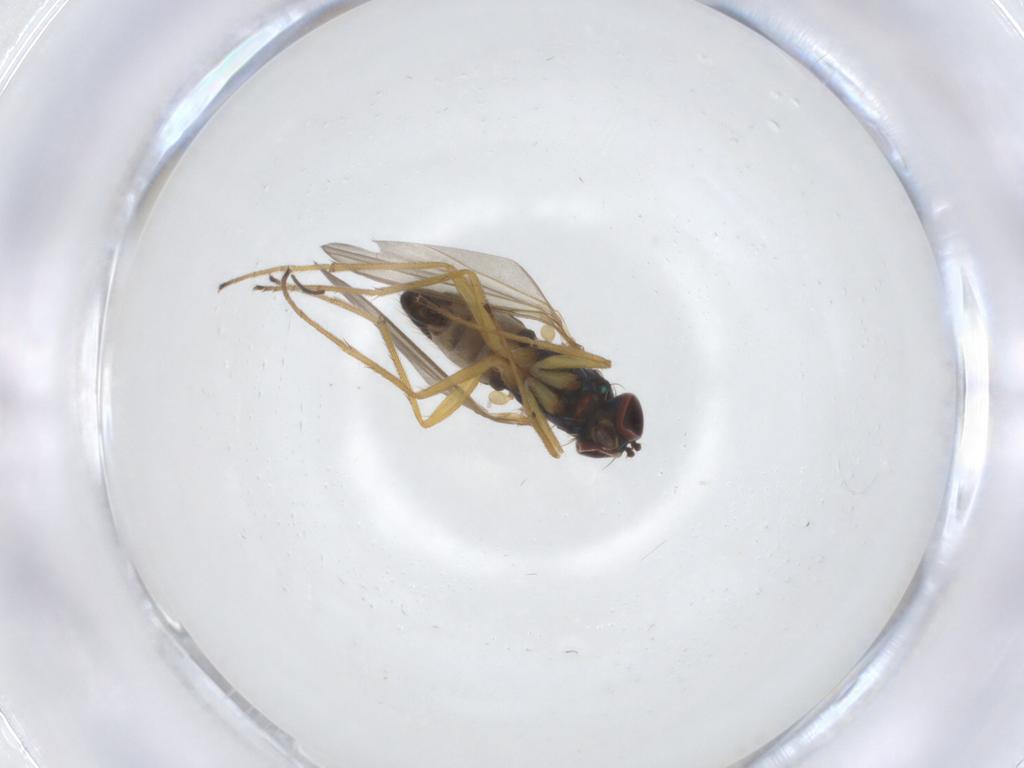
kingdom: Animalia
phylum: Arthropoda
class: Insecta
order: Diptera
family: Sciaridae
